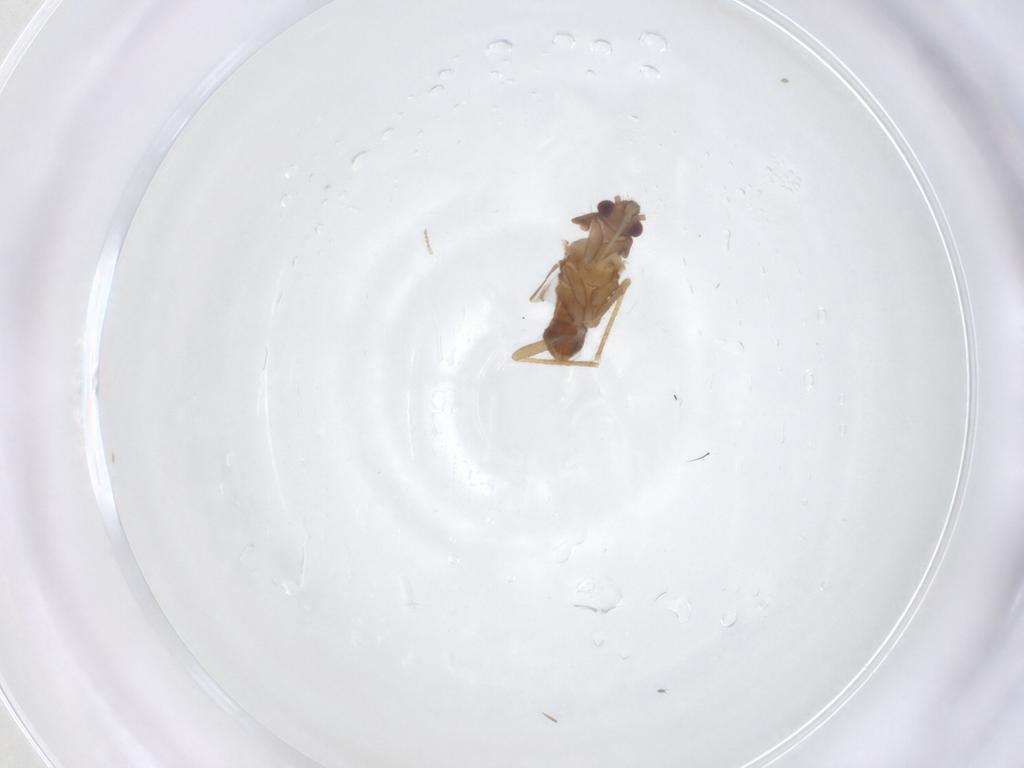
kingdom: Animalia
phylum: Arthropoda
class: Insecta
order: Hemiptera
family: Ceratocombidae
